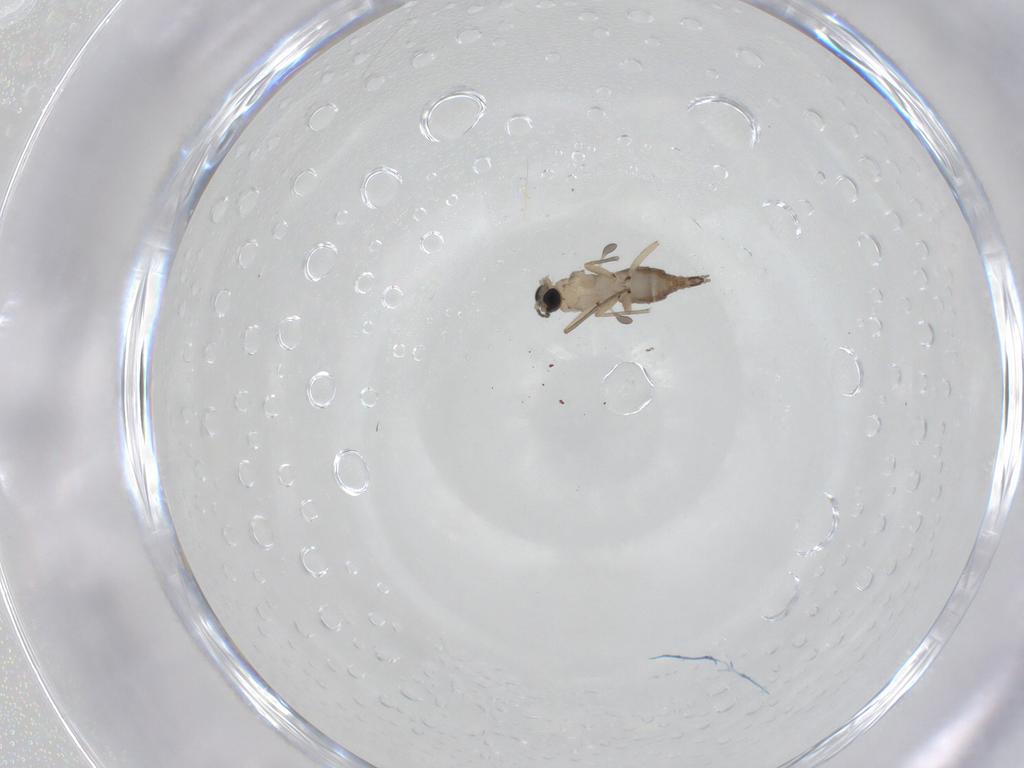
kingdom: Animalia
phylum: Arthropoda
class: Insecta
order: Diptera
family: Sciaridae
